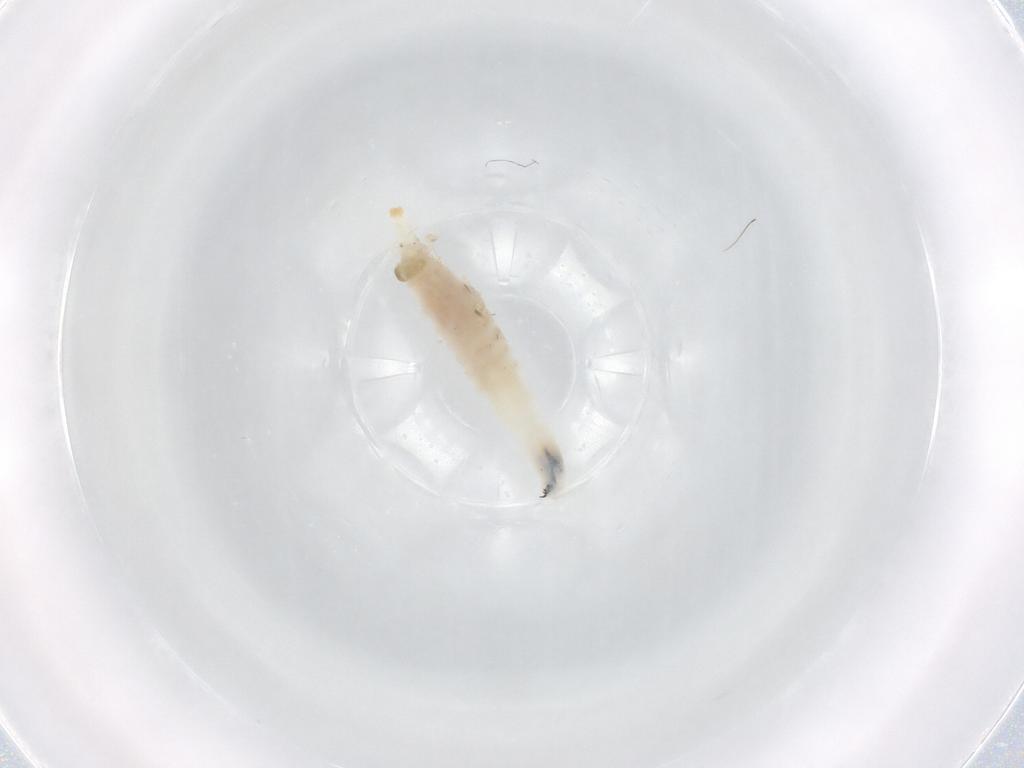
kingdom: Animalia
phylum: Arthropoda
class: Insecta
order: Diptera
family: Drosophilidae
